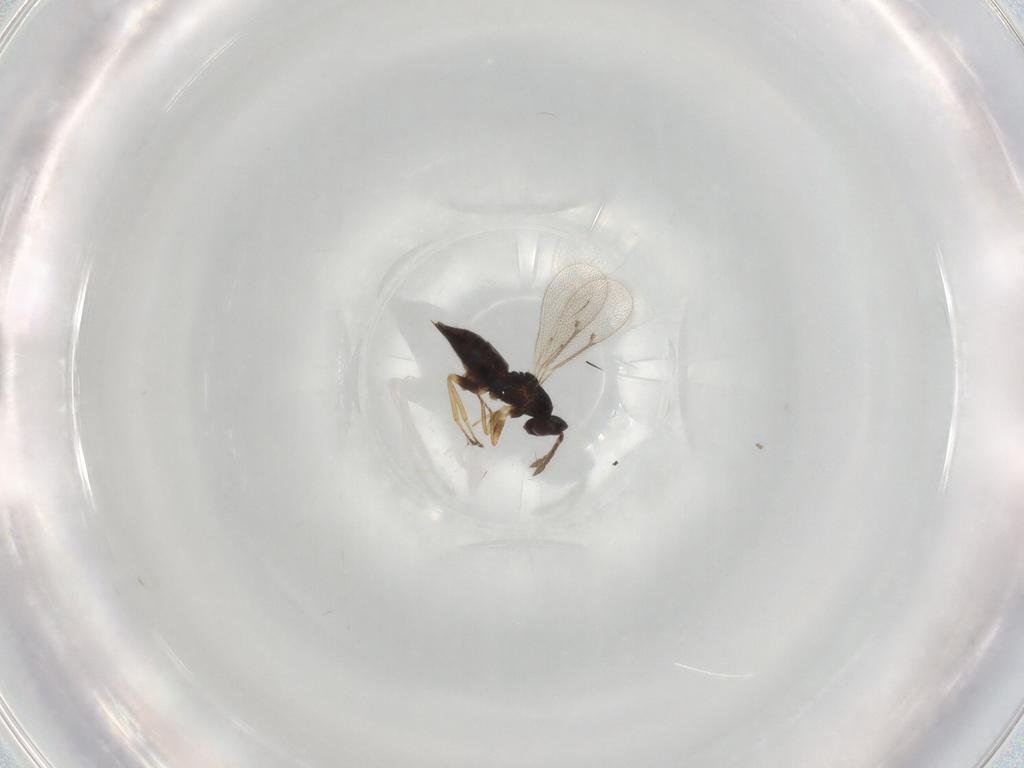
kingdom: Animalia
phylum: Arthropoda
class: Insecta
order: Hymenoptera
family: Eulophidae
